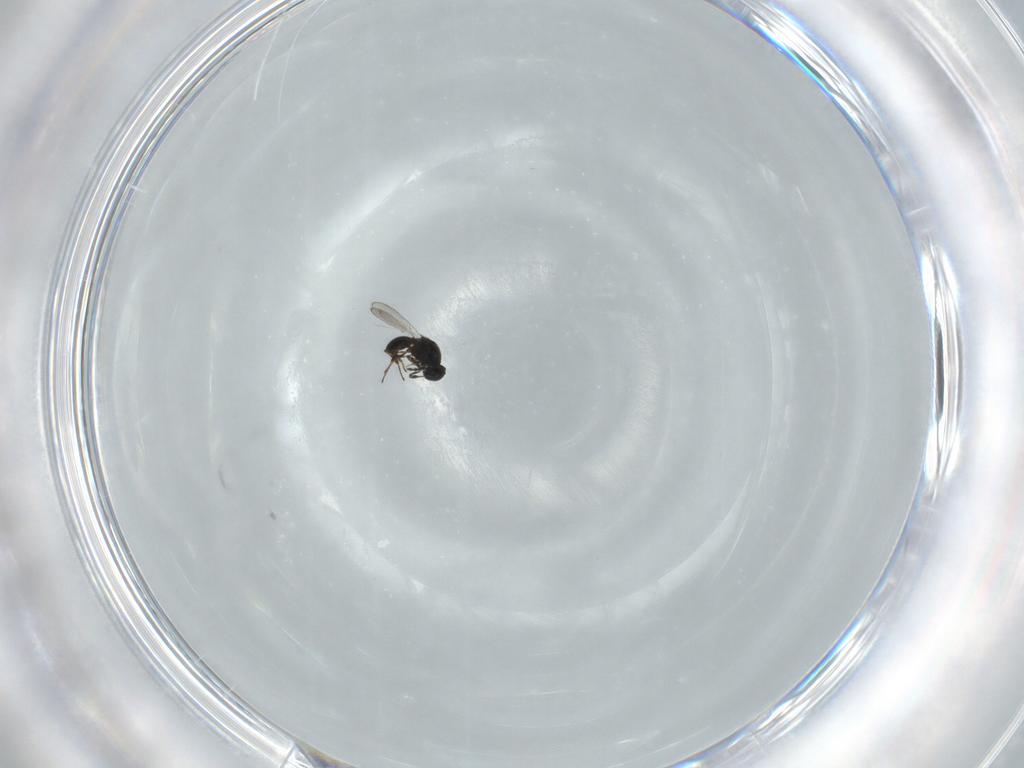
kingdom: Animalia
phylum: Arthropoda
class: Insecta
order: Hymenoptera
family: Platygastridae
